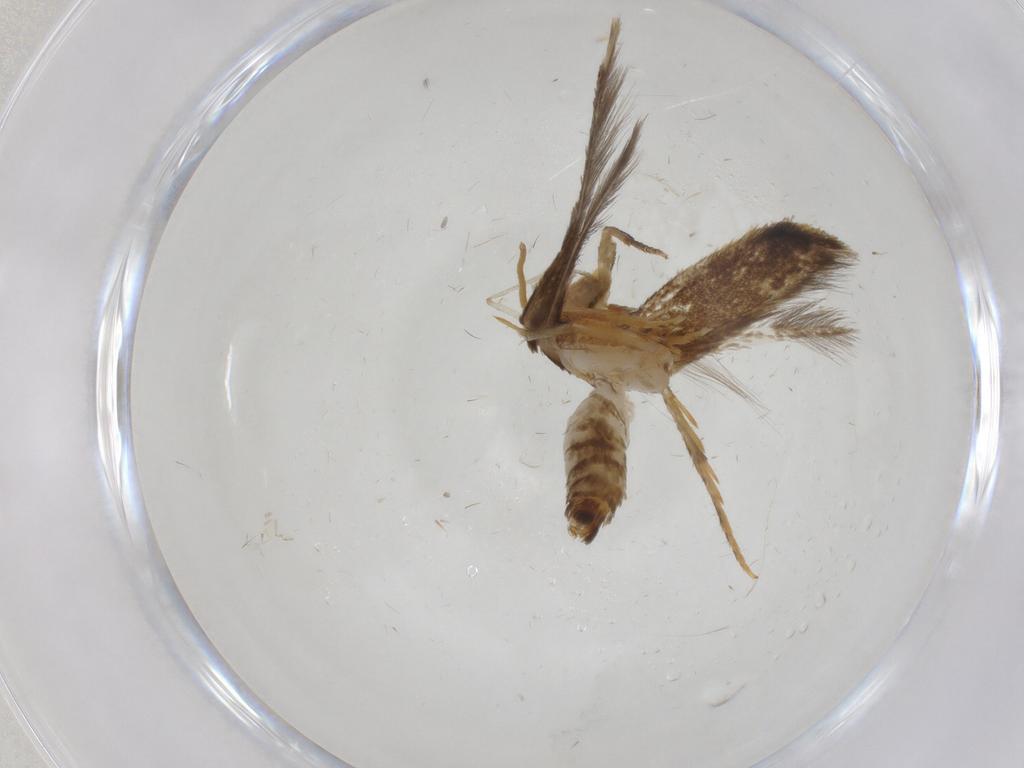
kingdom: Animalia
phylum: Arthropoda
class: Insecta
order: Lepidoptera
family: Nepticulidae
